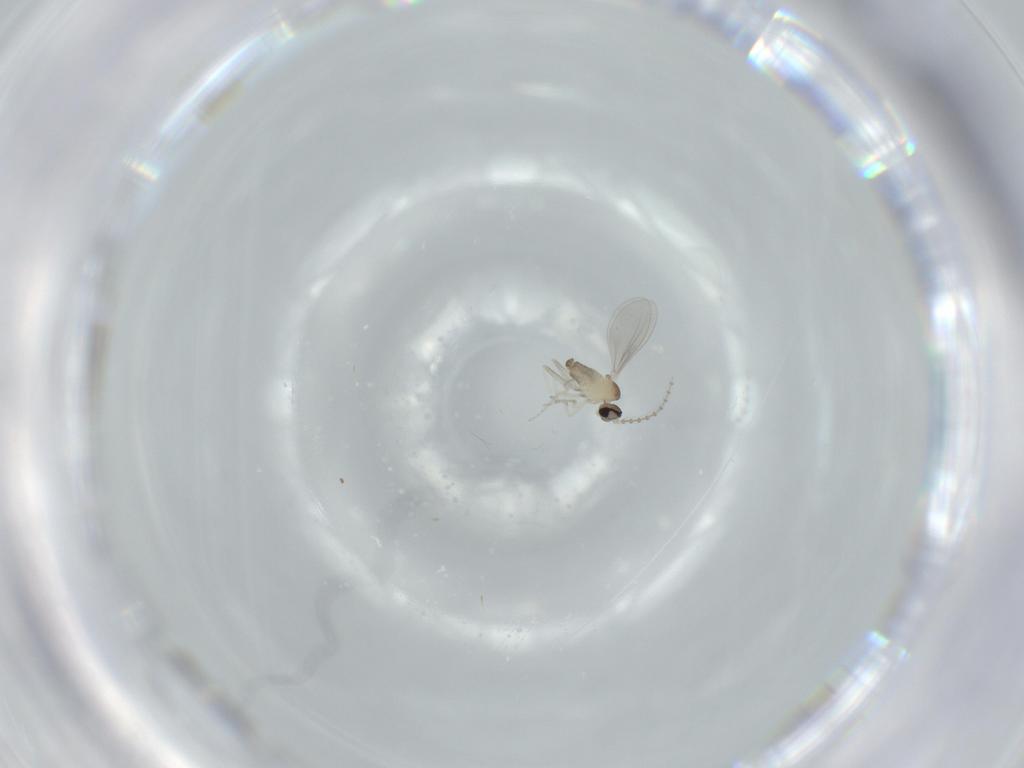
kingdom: Animalia
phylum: Arthropoda
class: Insecta
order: Diptera
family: Cecidomyiidae
